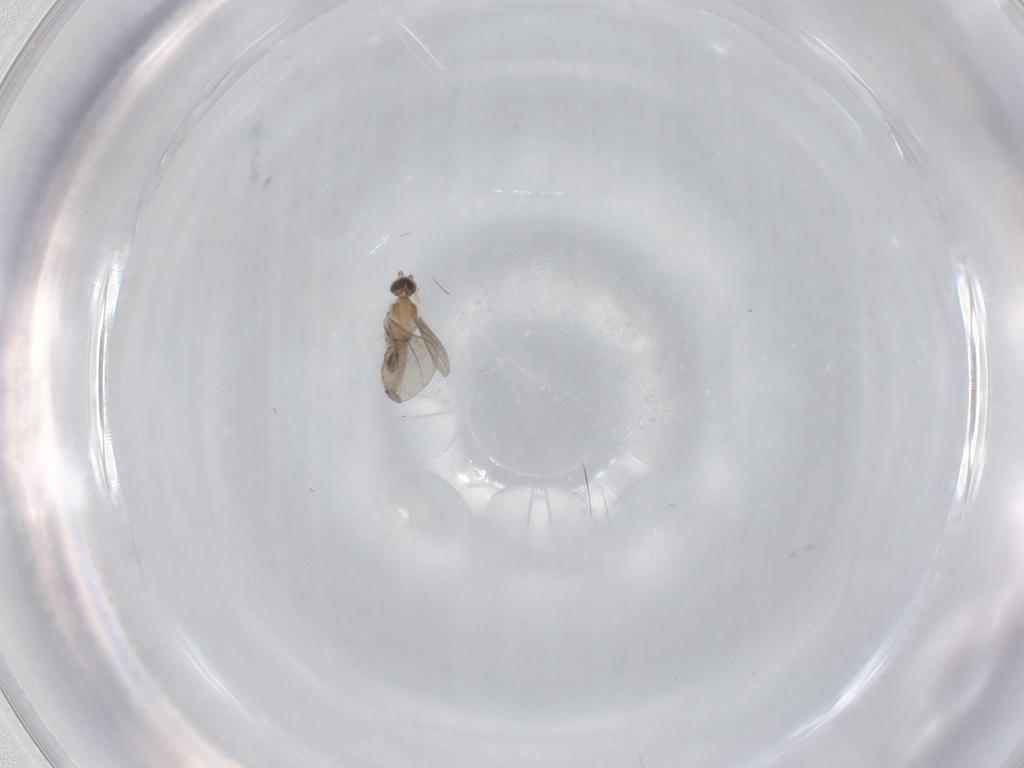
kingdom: Animalia
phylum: Arthropoda
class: Insecta
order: Diptera
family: Cecidomyiidae
